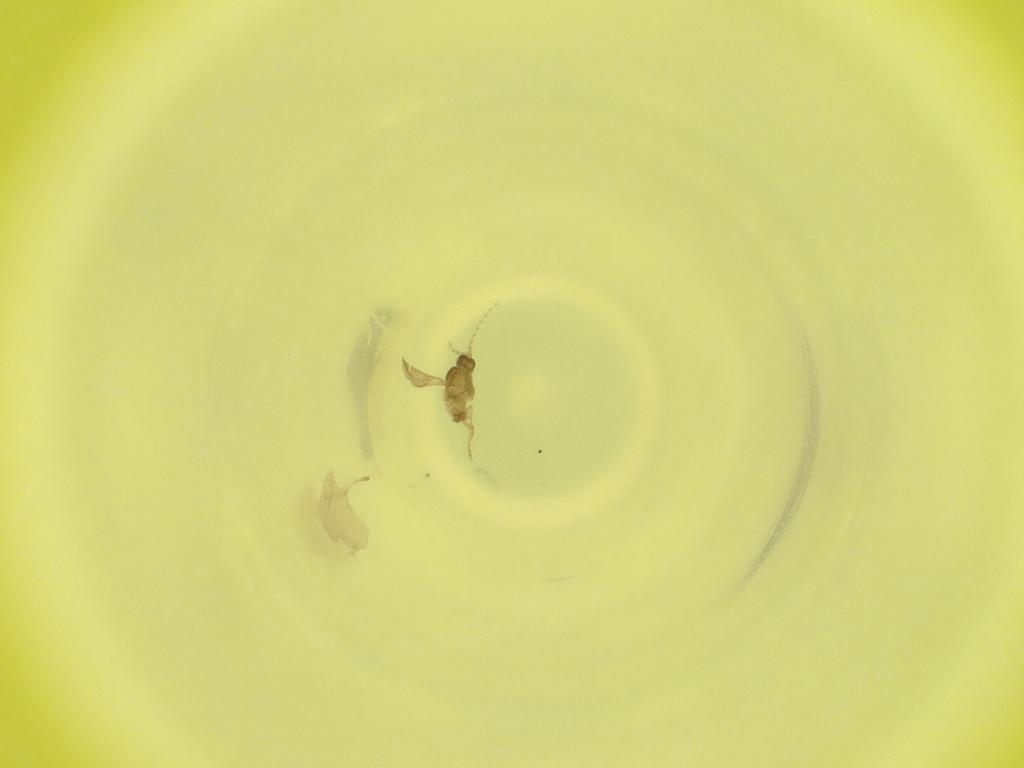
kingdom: Animalia
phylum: Arthropoda
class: Insecta
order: Diptera
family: Cecidomyiidae
